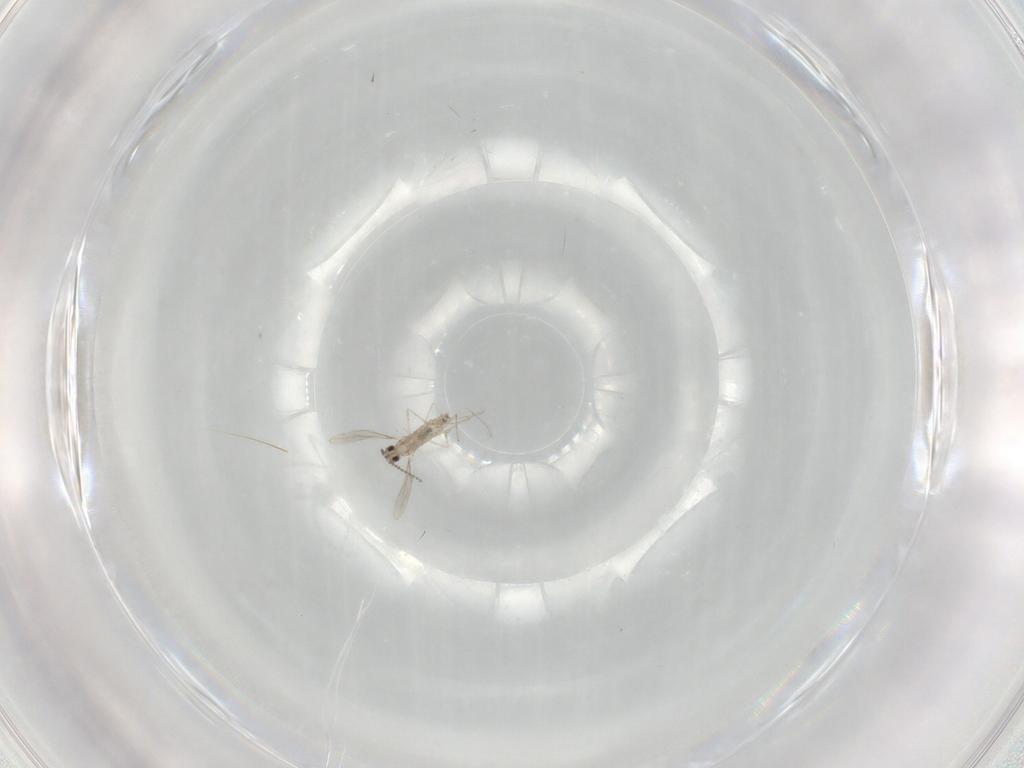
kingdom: Animalia
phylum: Arthropoda
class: Insecta
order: Diptera
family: Cecidomyiidae
